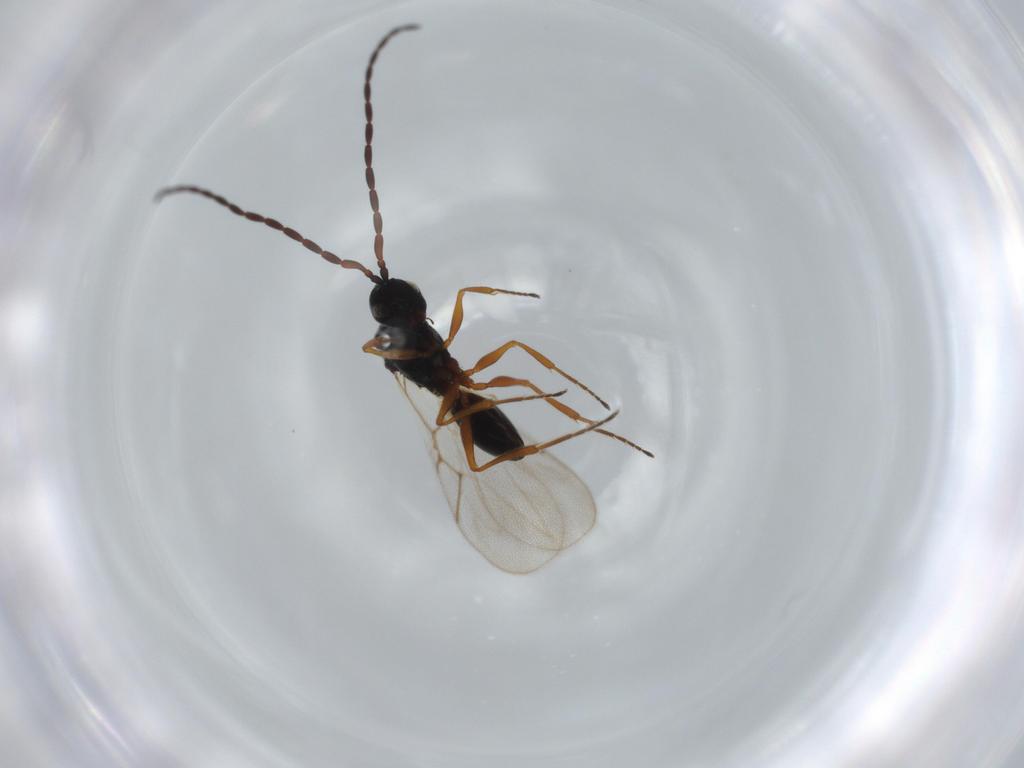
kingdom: Animalia
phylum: Arthropoda
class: Insecta
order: Hymenoptera
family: Figitidae
